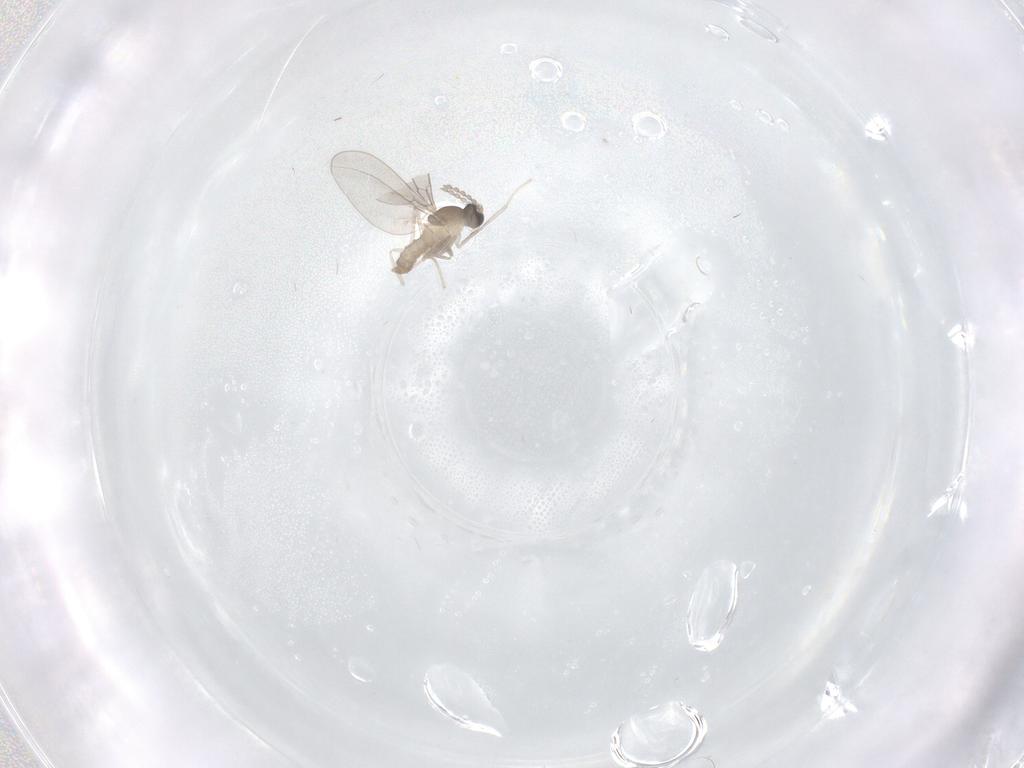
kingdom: Animalia
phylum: Arthropoda
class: Insecta
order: Diptera
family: Cecidomyiidae
